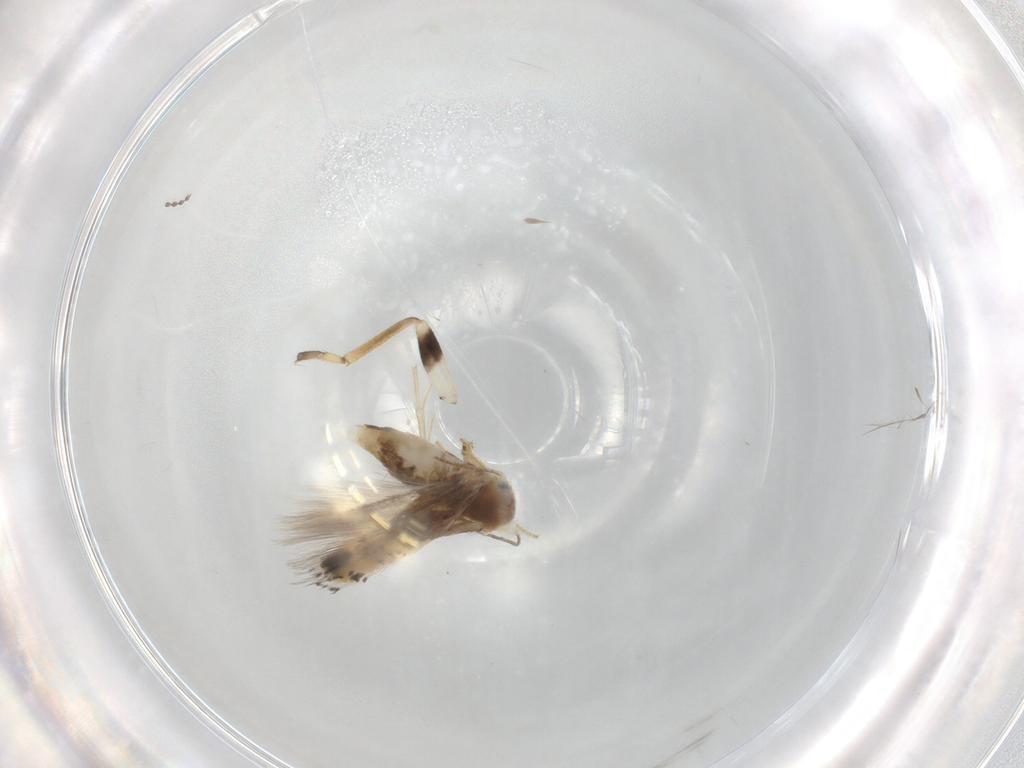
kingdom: Animalia
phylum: Arthropoda
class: Insecta
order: Lepidoptera
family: Lyonetiidae
